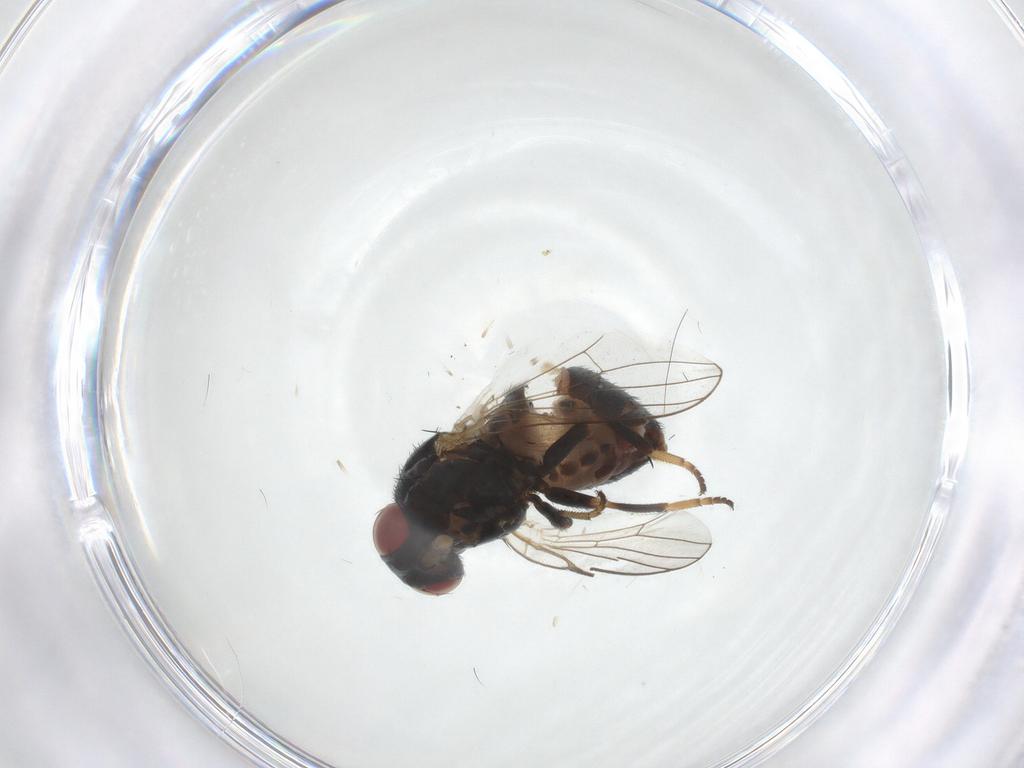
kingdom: Animalia
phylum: Arthropoda
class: Insecta
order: Diptera
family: Chamaemyiidae
